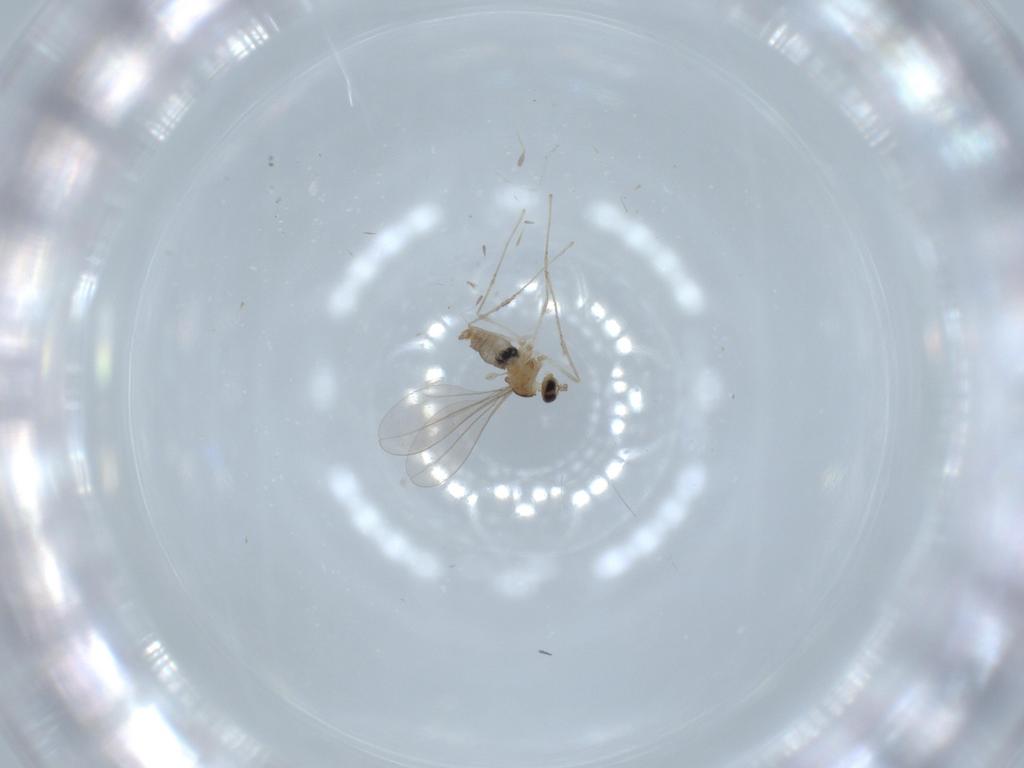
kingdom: Animalia
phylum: Arthropoda
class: Insecta
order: Diptera
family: Cecidomyiidae
